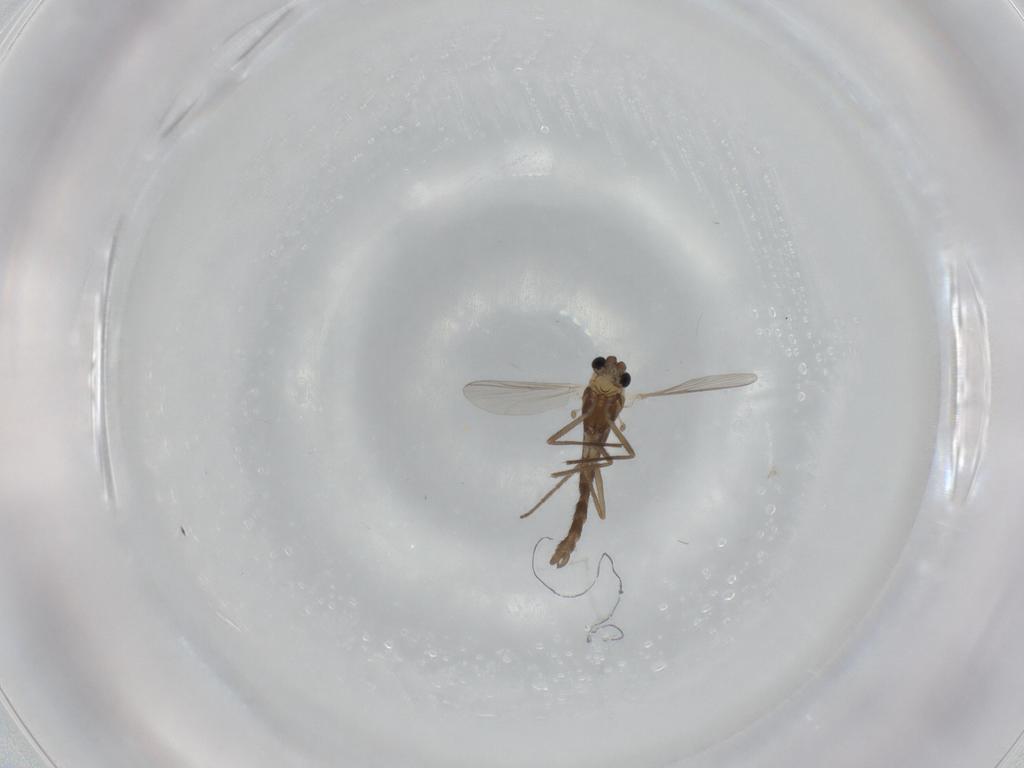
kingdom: Animalia
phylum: Arthropoda
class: Insecta
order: Diptera
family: Chironomidae
